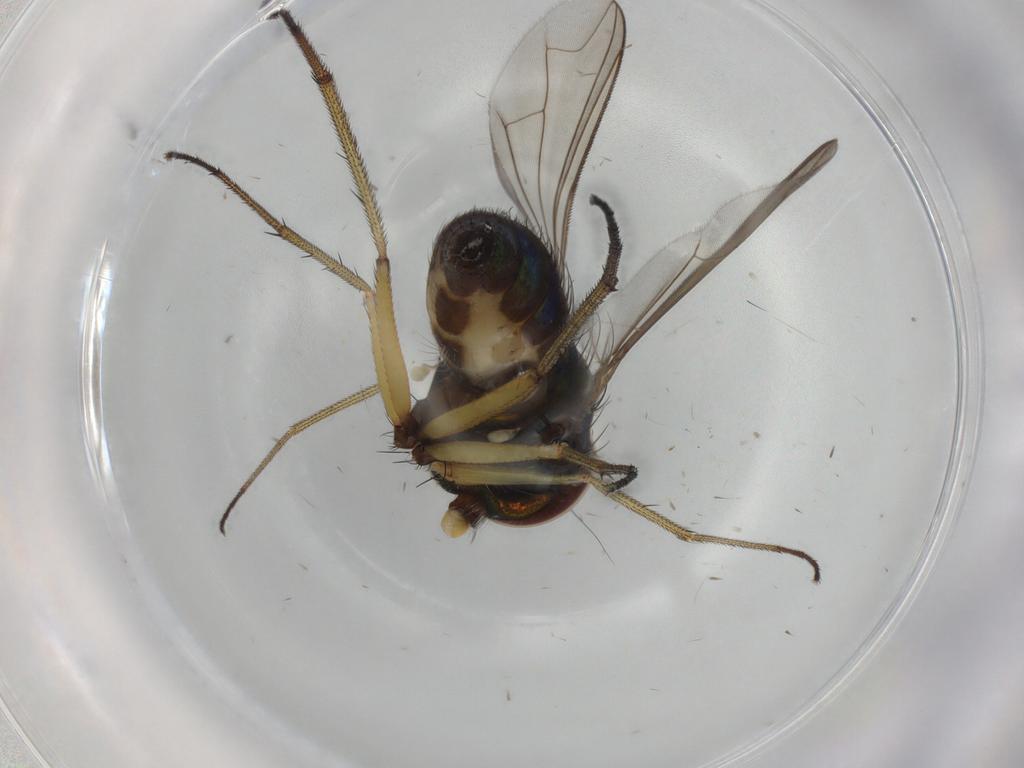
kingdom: Animalia
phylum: Arthropoda
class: Insecta
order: Diptera
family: Dolichopodidae
